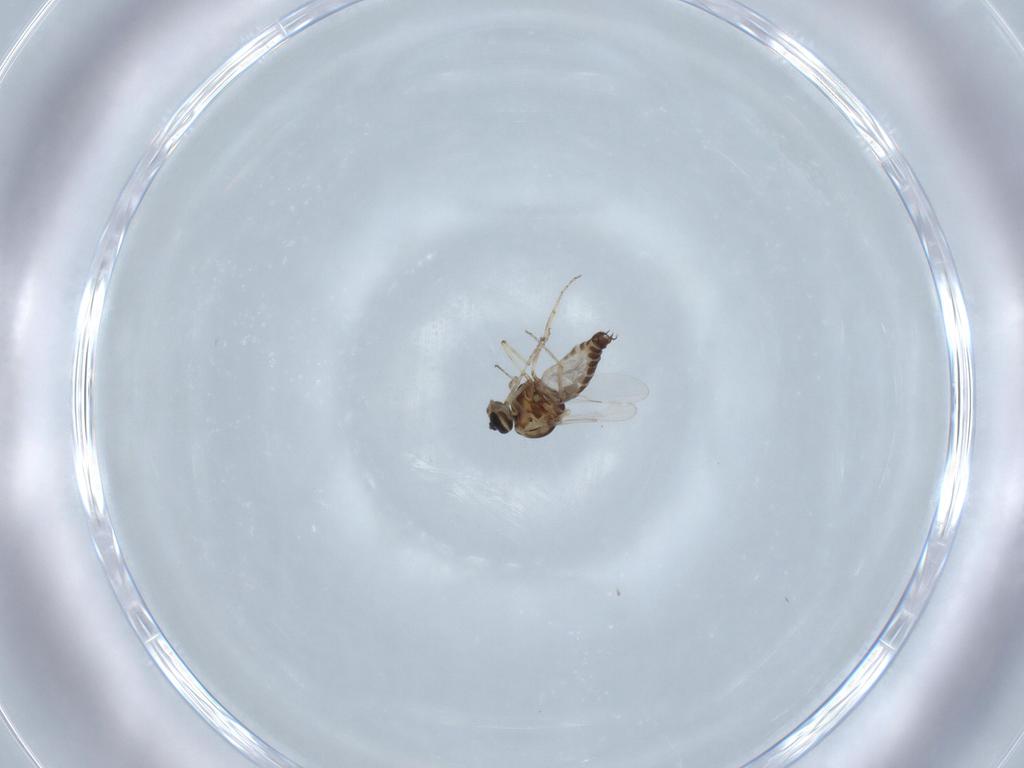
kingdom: Animalia
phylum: Arthropoda
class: Insecta
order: Diptera
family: Ceratopogonidae
